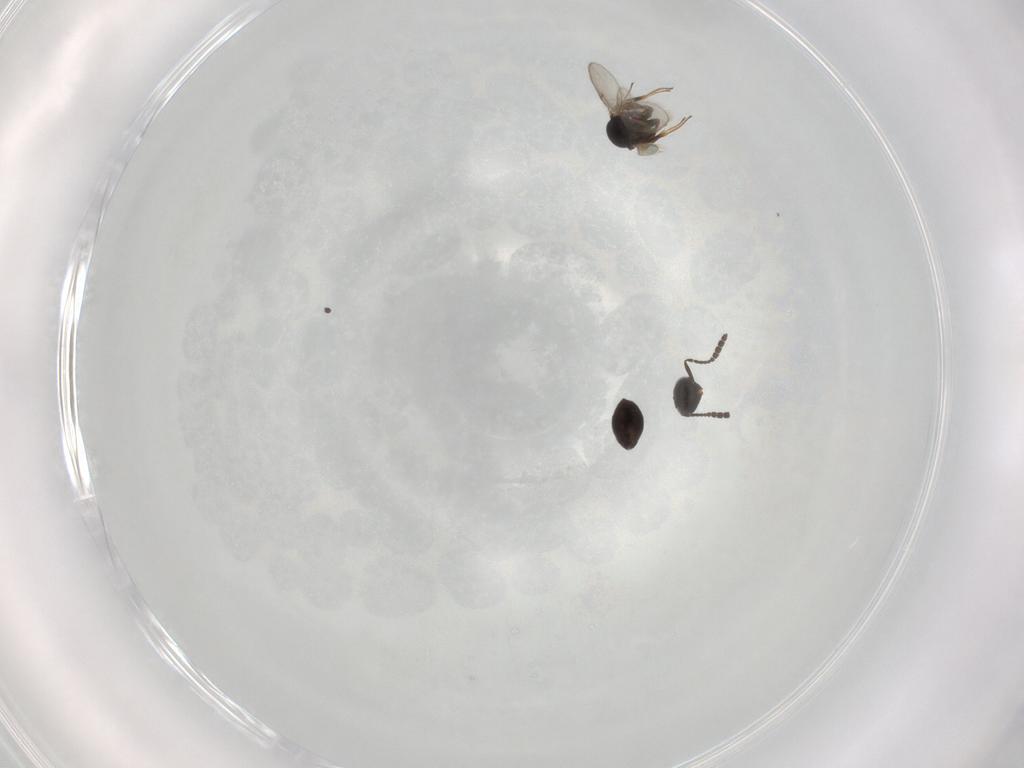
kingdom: Animalia
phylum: Arthropoda
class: Insecta
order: Hymenoptera
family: Scelionidae
